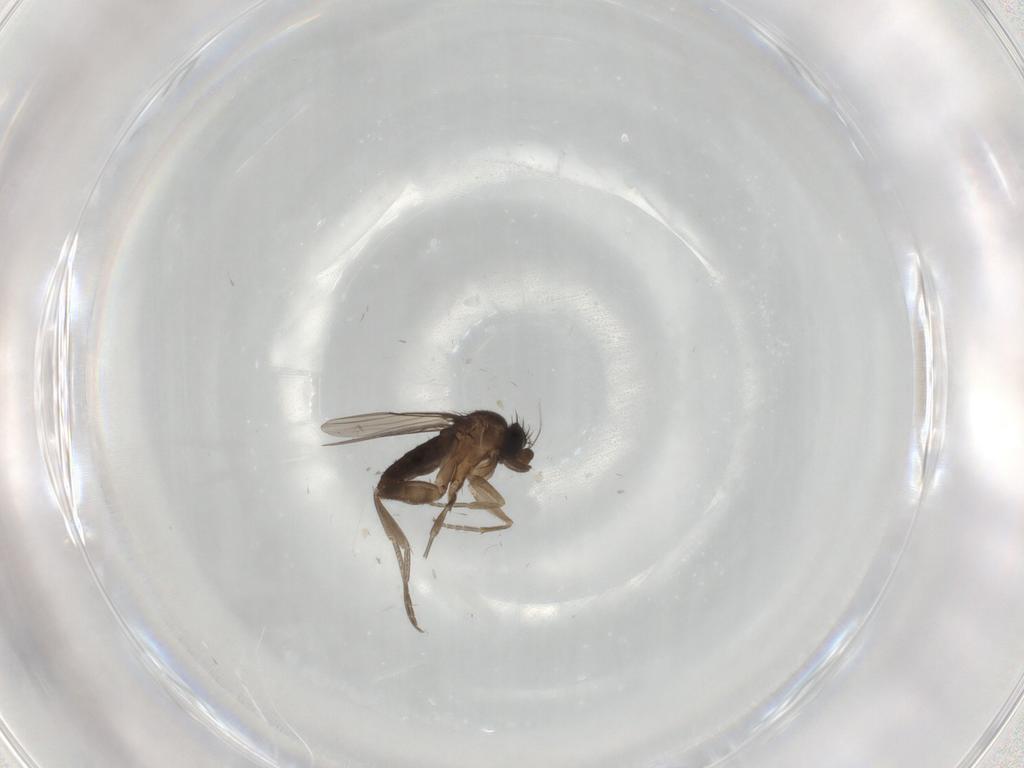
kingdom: Animalia
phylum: Arthropoda
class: Insecta
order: Diptera
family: Phoridae
